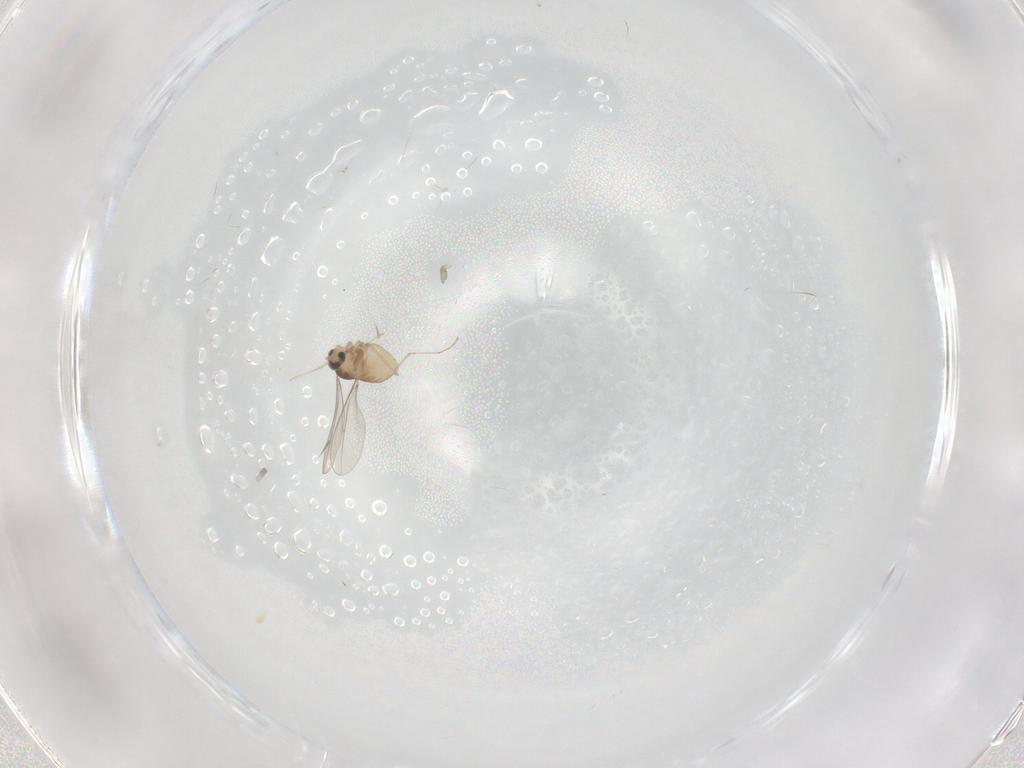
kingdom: Animalia
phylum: Arthropoda
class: Insecta
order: Diptera
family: Cecidomyiidae
